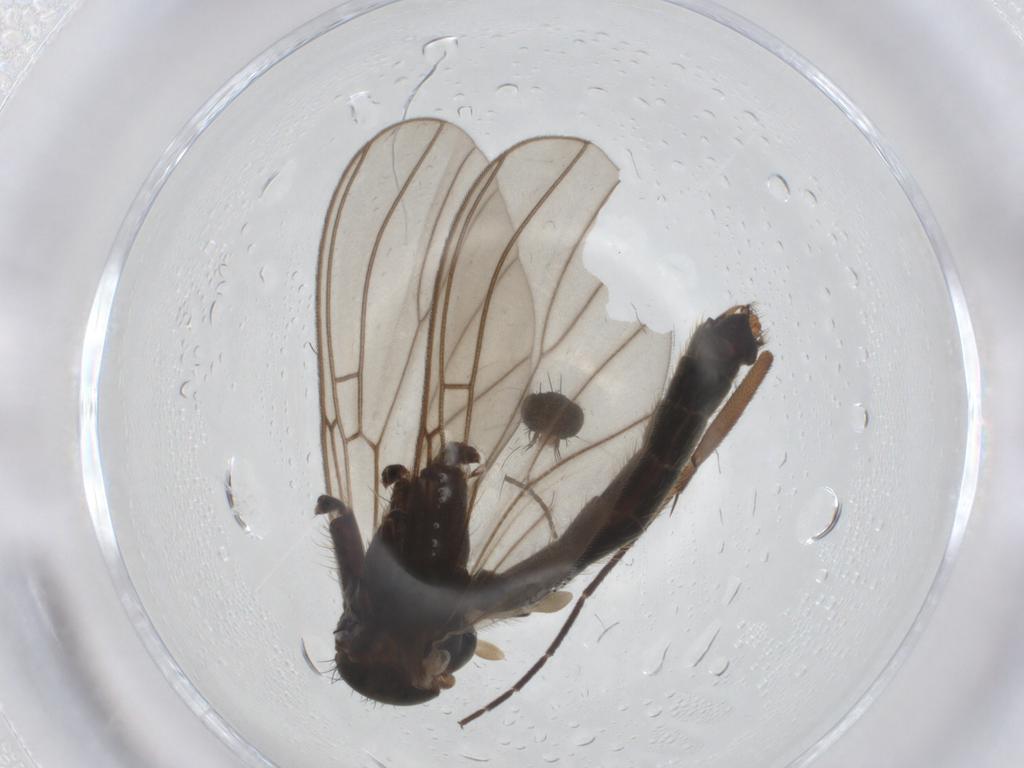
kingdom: Animalia
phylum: Arthropoda
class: Insecta
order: Diptera
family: Mycetophilidae
